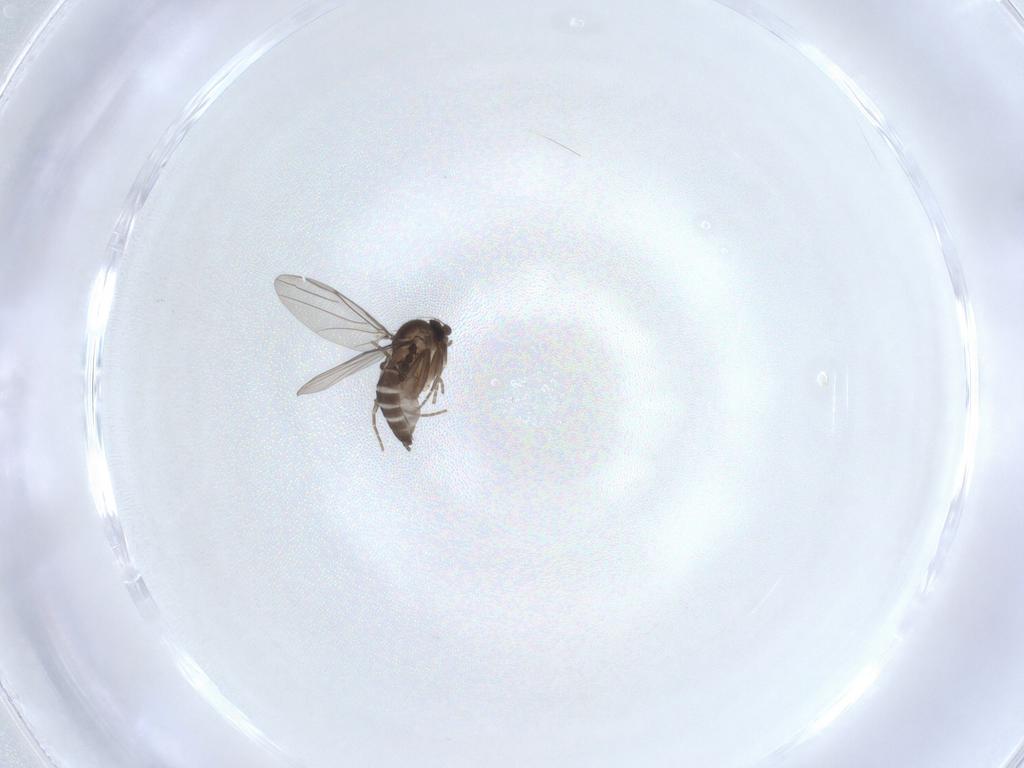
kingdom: Animalia
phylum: Arthropoda
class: Insecta
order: Diptera
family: Phoridae
